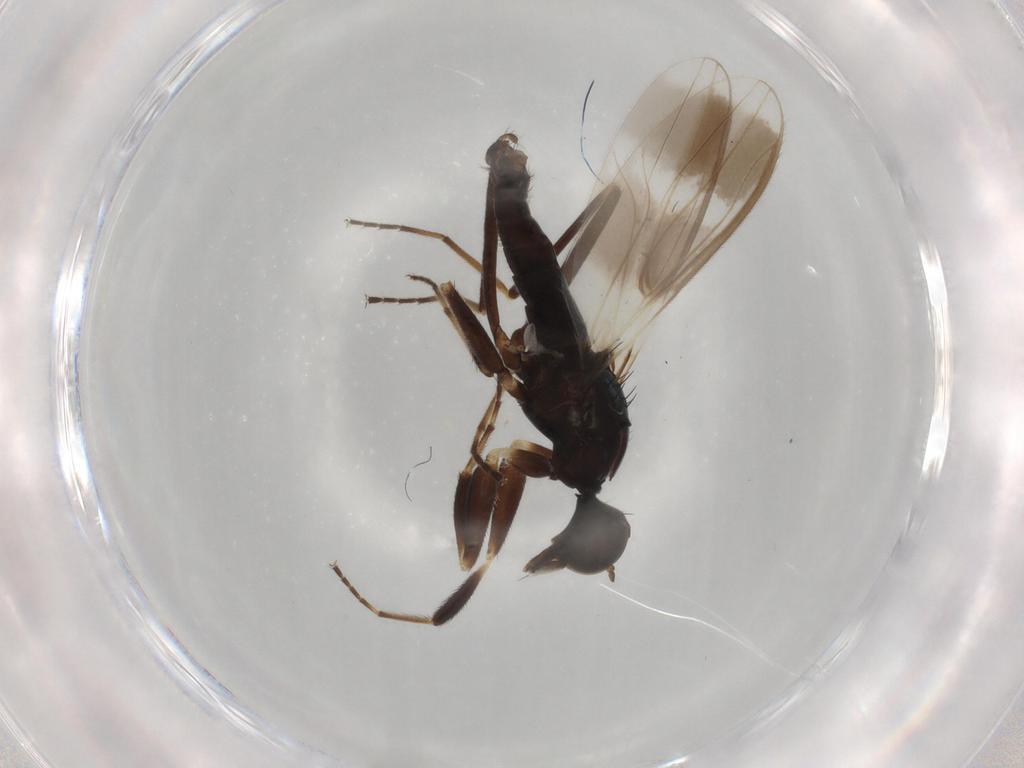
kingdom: Animalia
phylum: Arthropoda
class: Insecta
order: Diptera
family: Hybotidae
